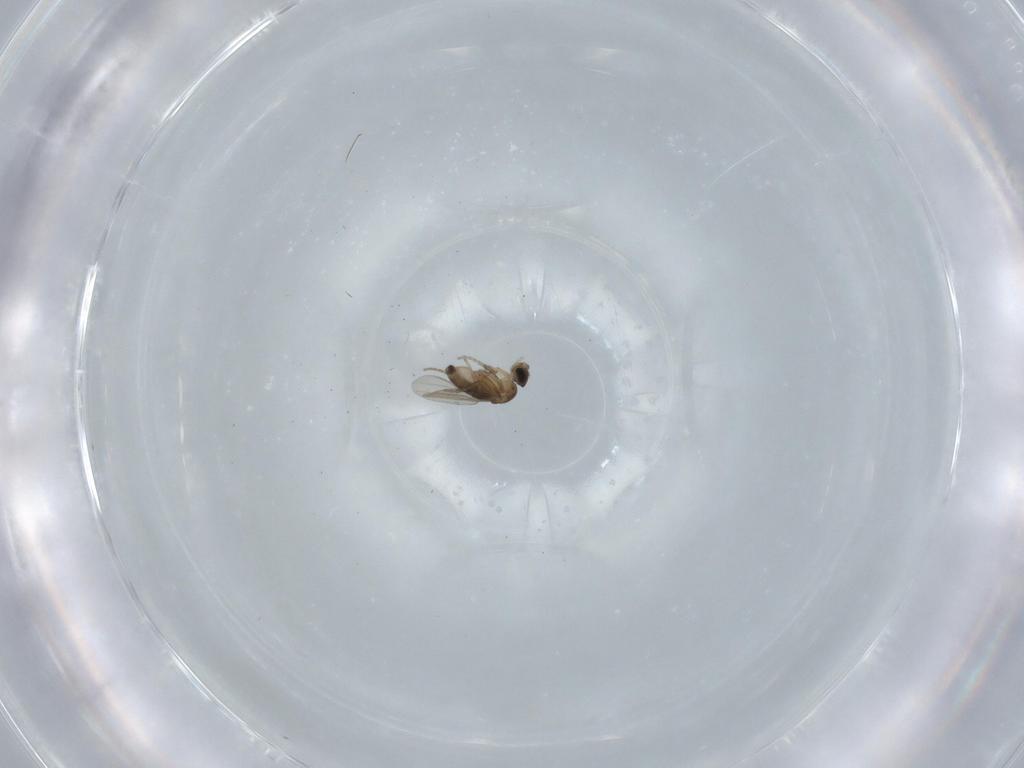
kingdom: Animalia
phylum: Arthropoda
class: Insecta
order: Diptera
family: Phoridae
